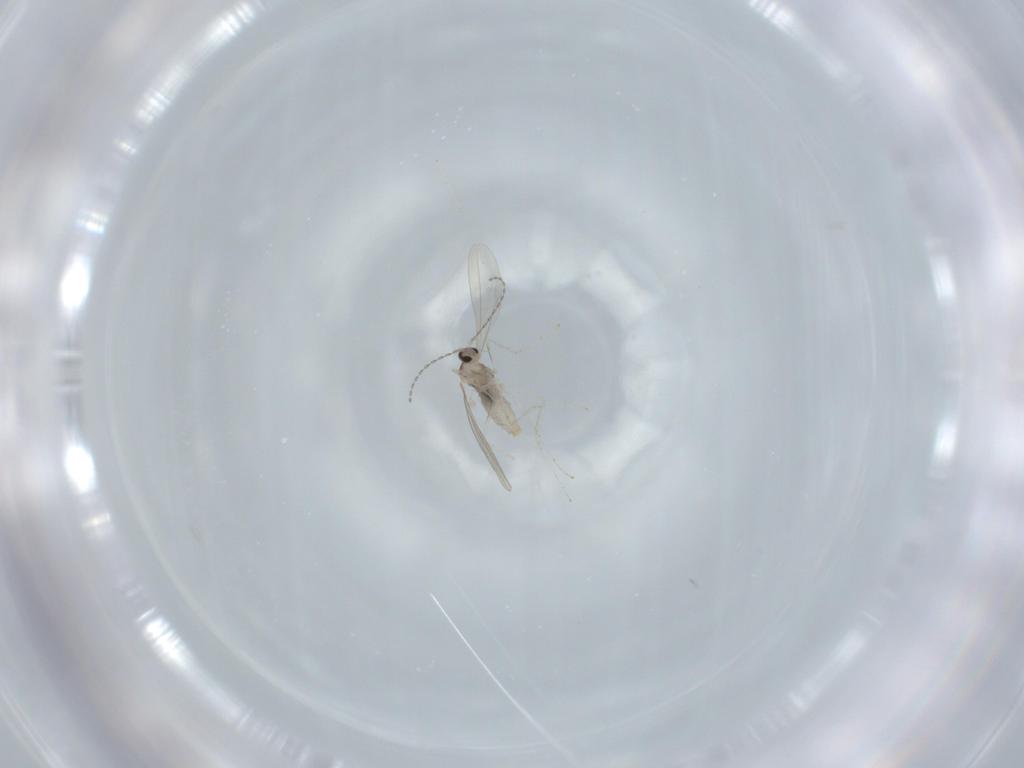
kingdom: Animalia
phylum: Arthropoda
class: Insecta
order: Diptera
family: Cecidomyiidae
